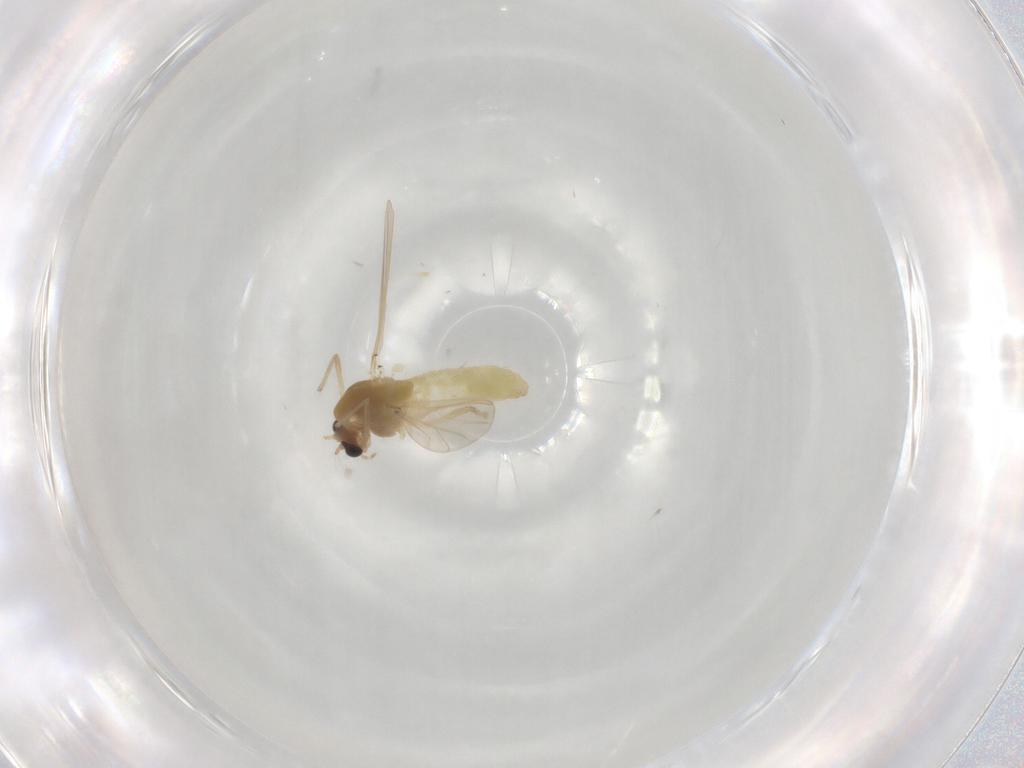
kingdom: Animalia
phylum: Arthropoda
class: Insecta
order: Diptera
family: Chironomidae
